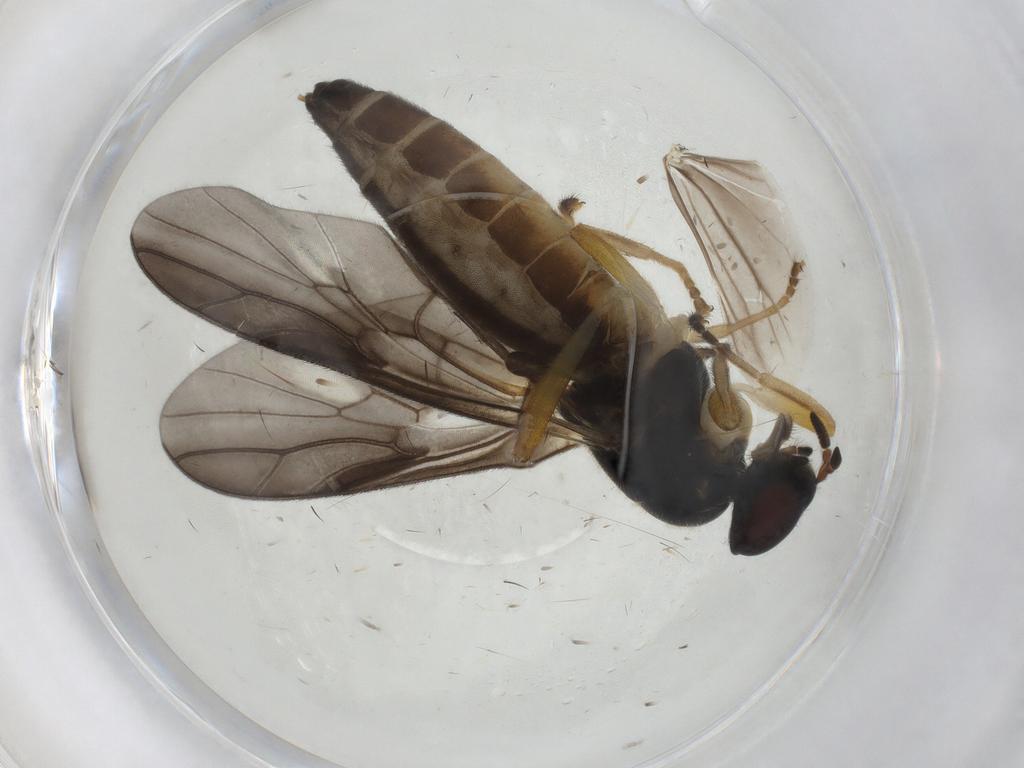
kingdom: Animalia
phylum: Arthropoda
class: Insecta
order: Diptera
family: Stratiomyidae
